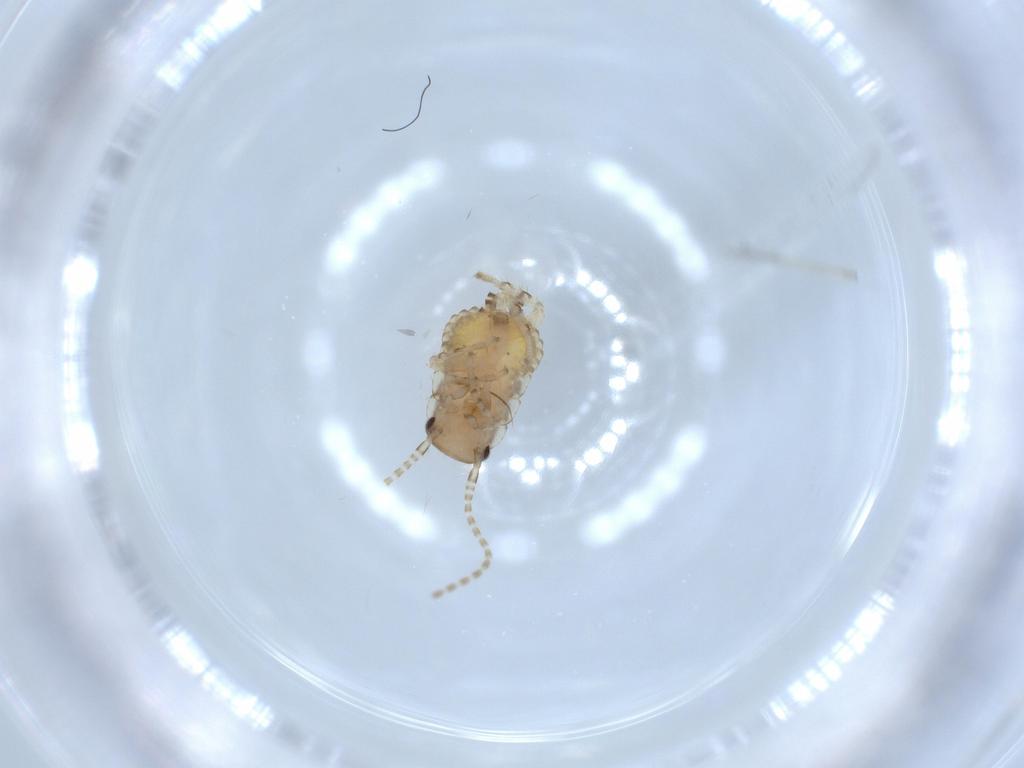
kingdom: Animalia
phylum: Arthropoda
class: Insecta
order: Blattodea
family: Ectobiidae
